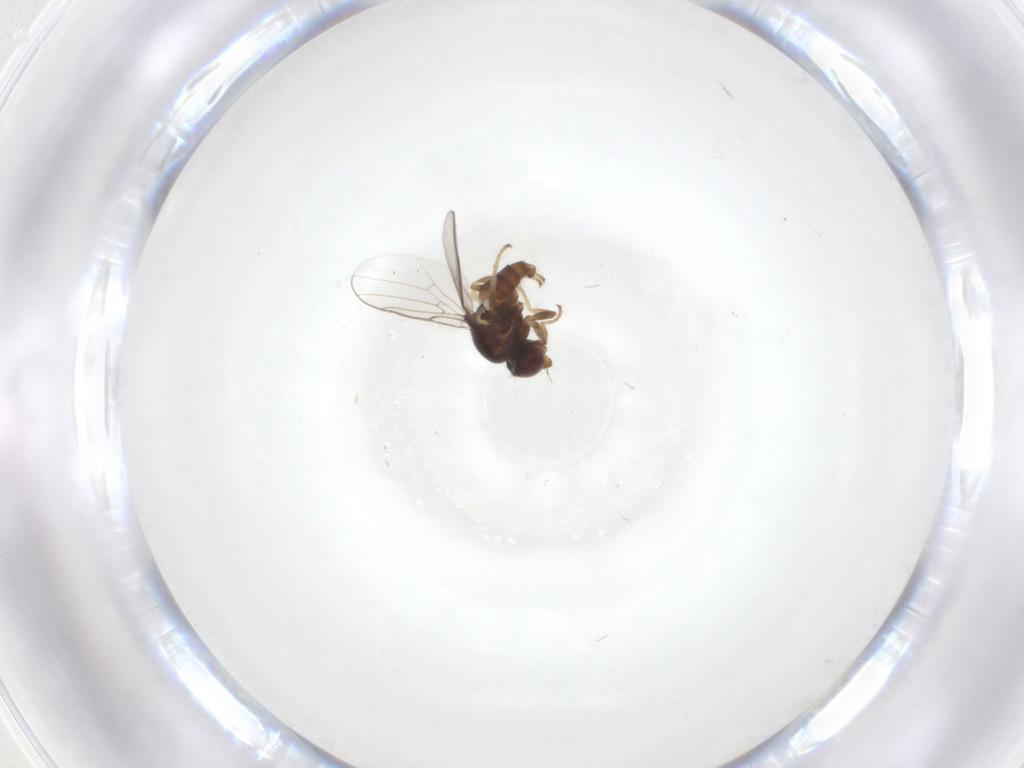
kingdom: Animalia
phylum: Arthropoda
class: Insecta
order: Diptera
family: Chloropidae
